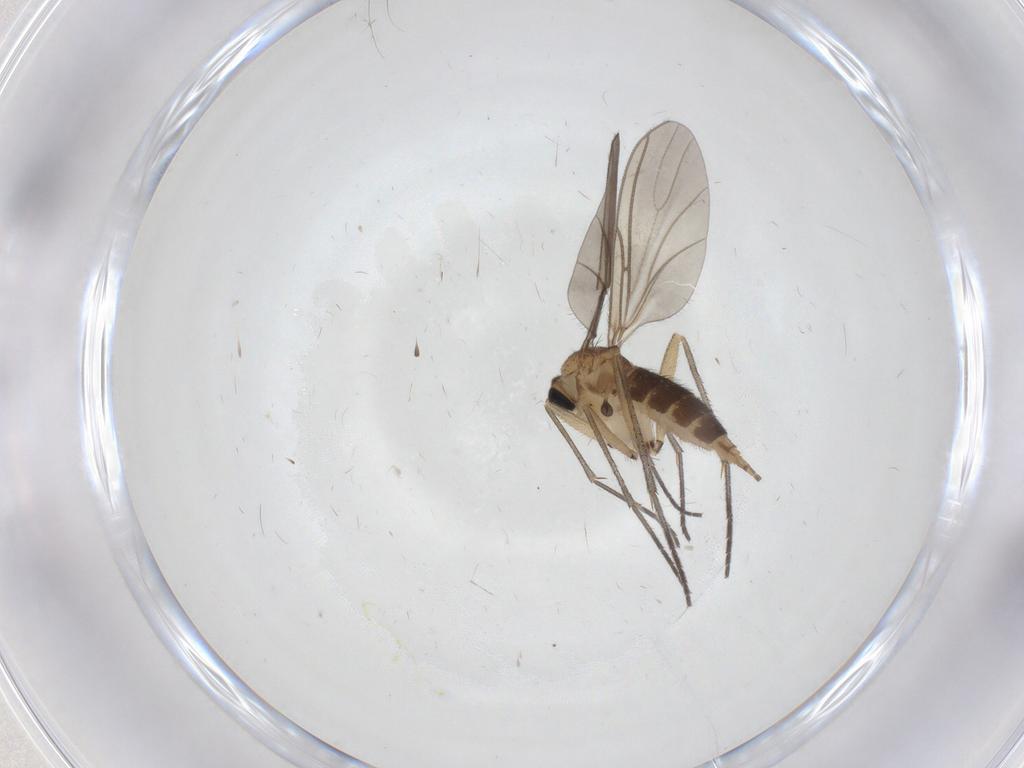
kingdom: Animalia
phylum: Arthropoda
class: Insecta
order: Diptera
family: Sciaridae
